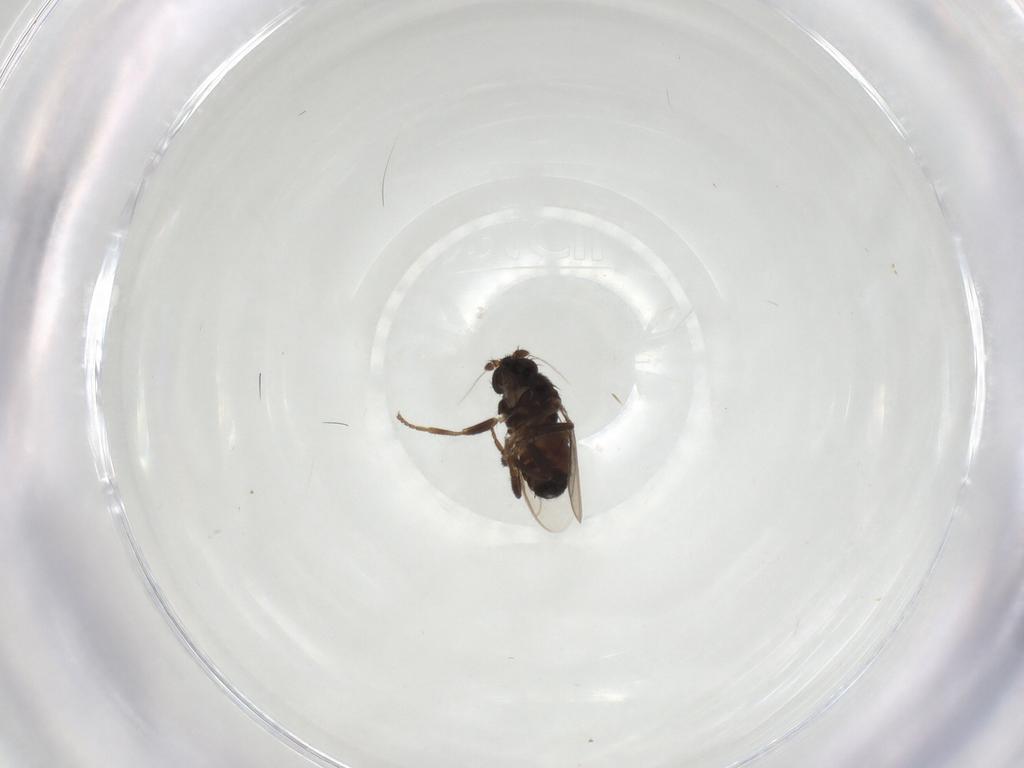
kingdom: Animalia
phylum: Arthropoda
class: Insecta
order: Diptera
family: Sphaeroceridae
